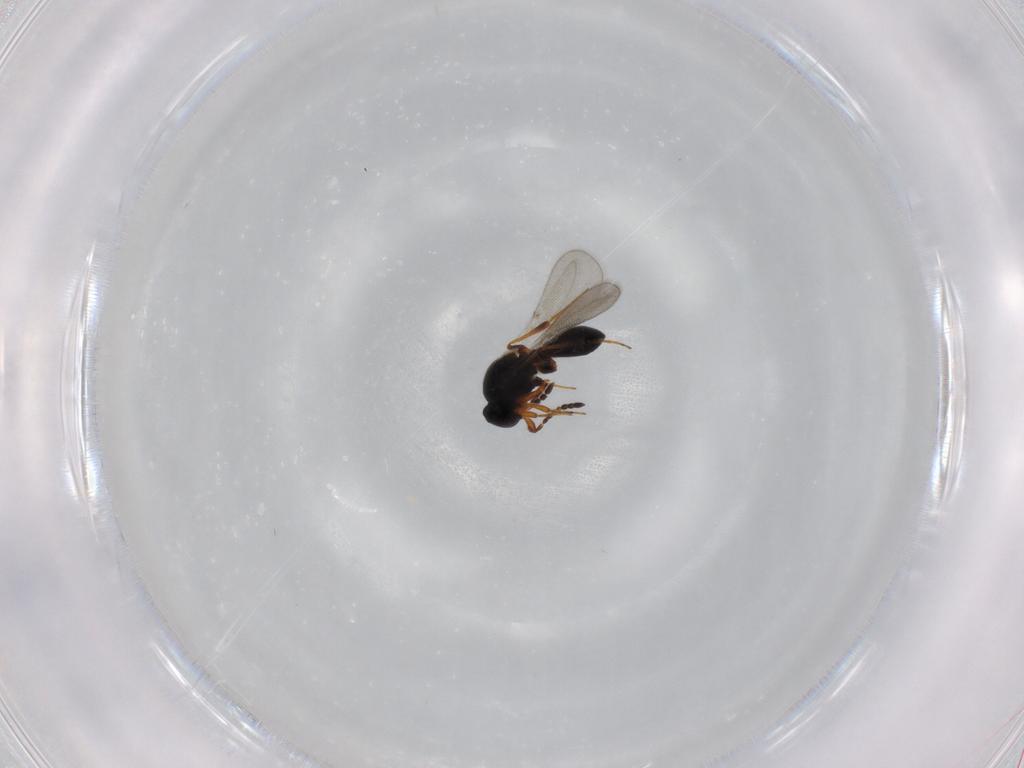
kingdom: Animalia
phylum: Arthropoda
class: Insecta
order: Hymenoptera
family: Platygastridae
